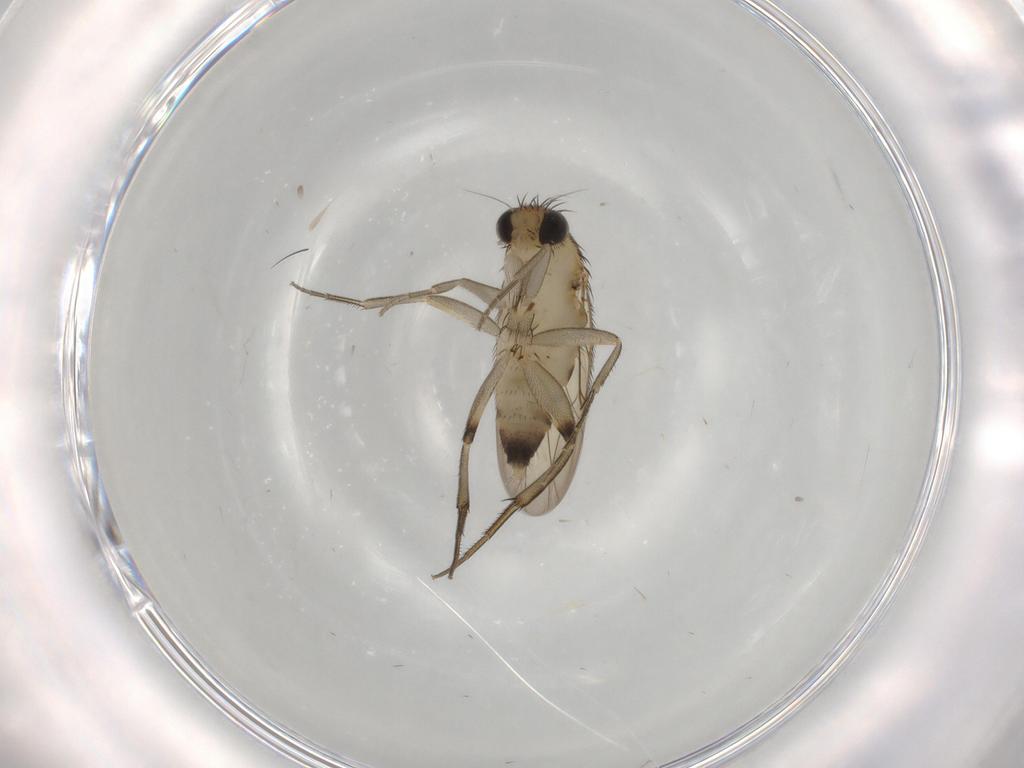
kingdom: Animalia
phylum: Arthropoda
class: Insecta
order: Diptera
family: Phoridae
